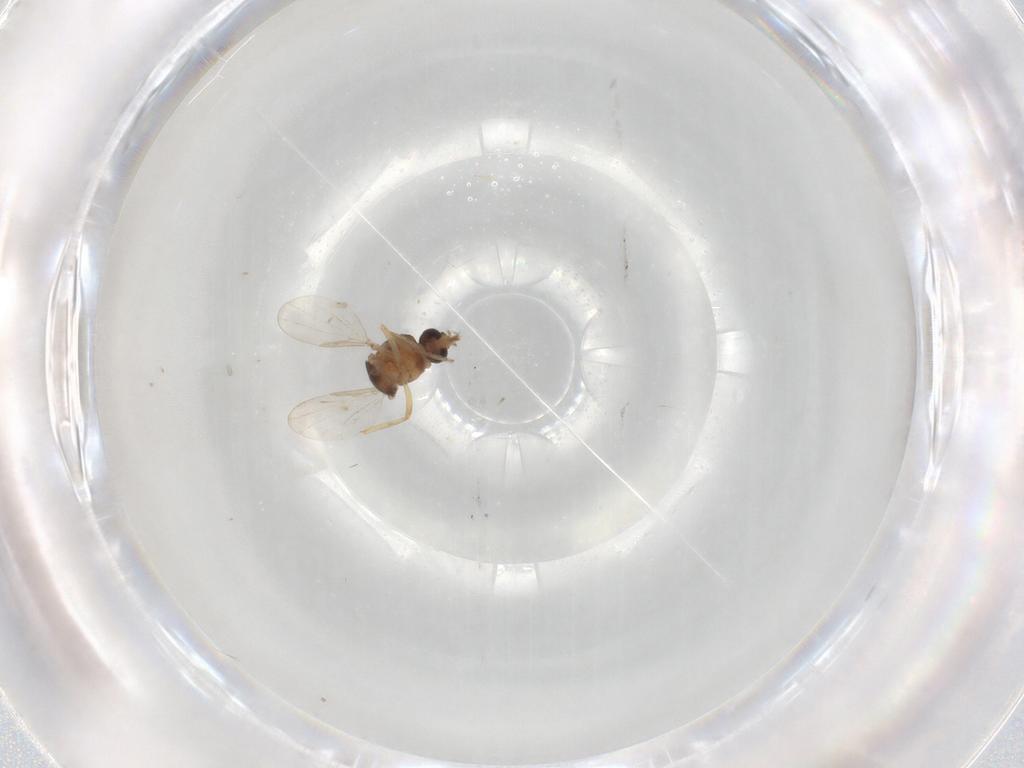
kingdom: Animalia
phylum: Arthropoda
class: Insecta
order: Diptera
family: Ceratopogonidae
